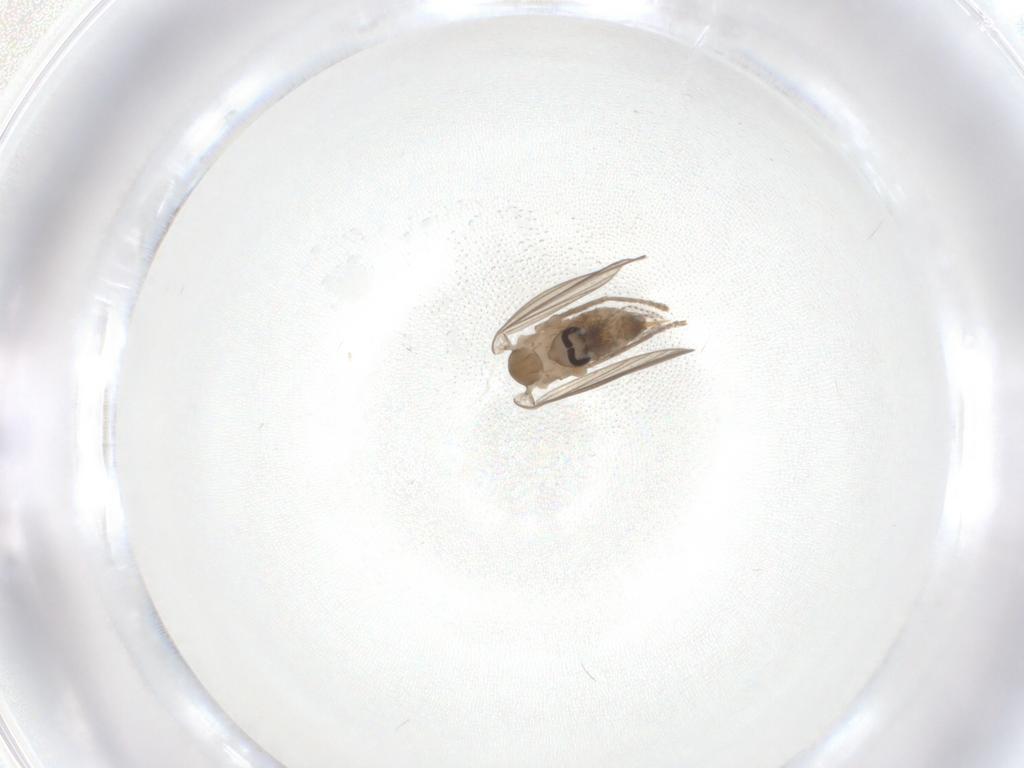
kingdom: Animalia
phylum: Arthropoda
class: Insecta
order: Diptera
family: Psychodidae
